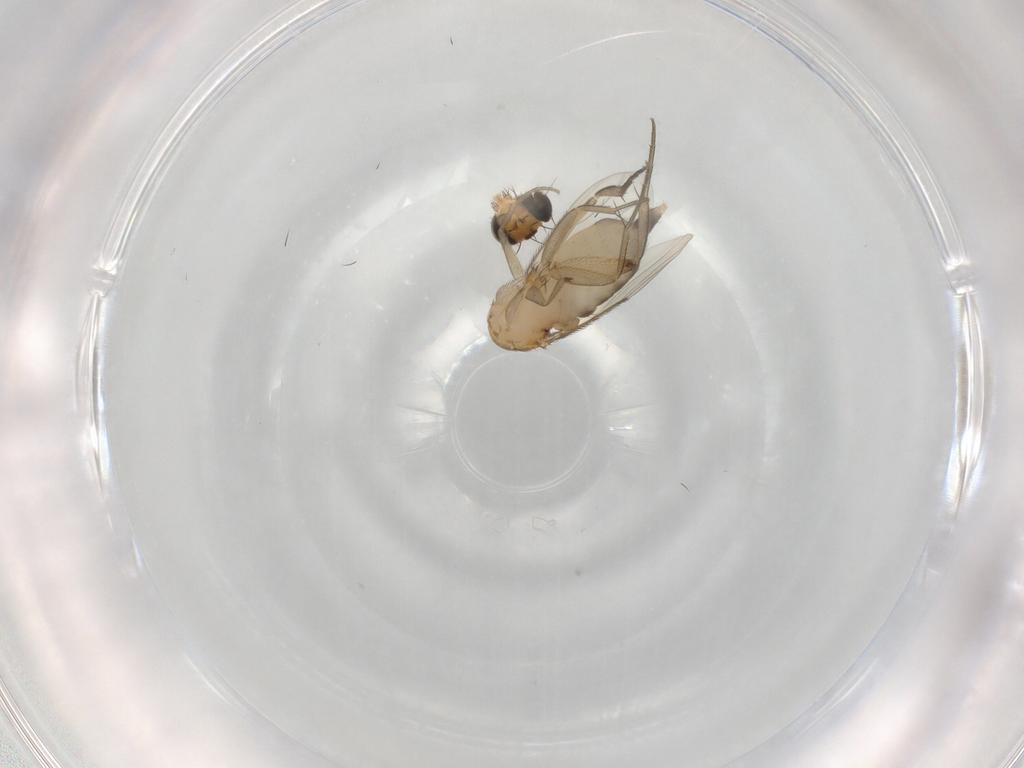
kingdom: Animalia
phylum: Arthropoda
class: Insecta
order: Diptera
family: Phoridae
